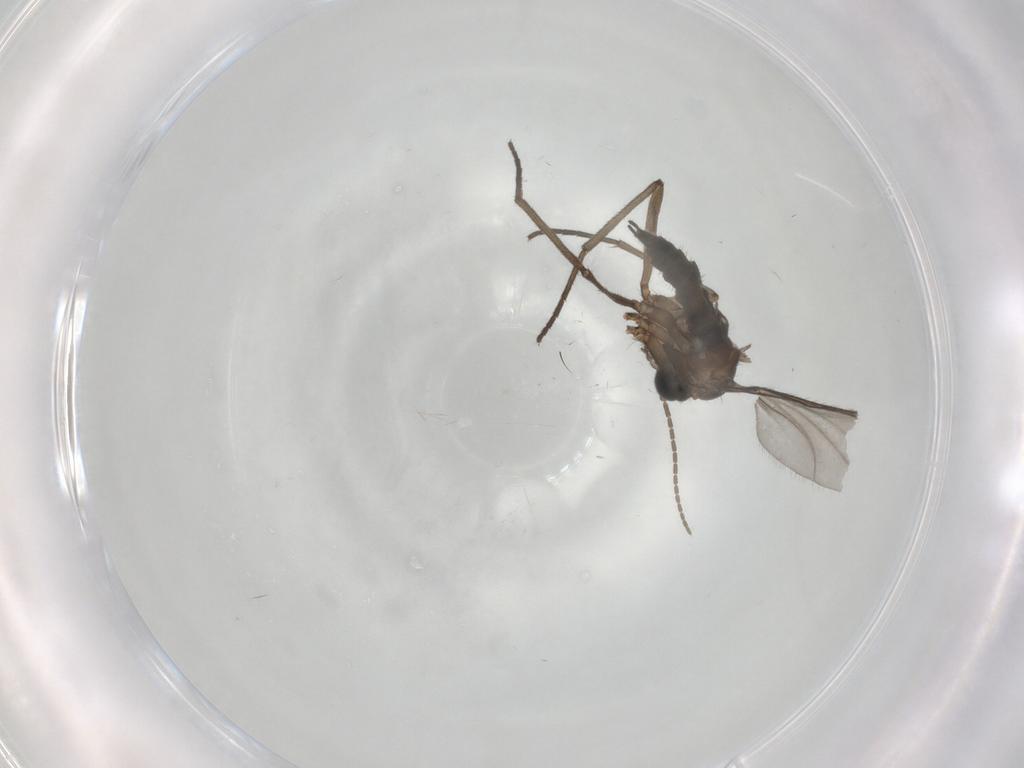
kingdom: Animalia
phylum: Arthropoda
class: Insecta
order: Diptera
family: Sciaridae
